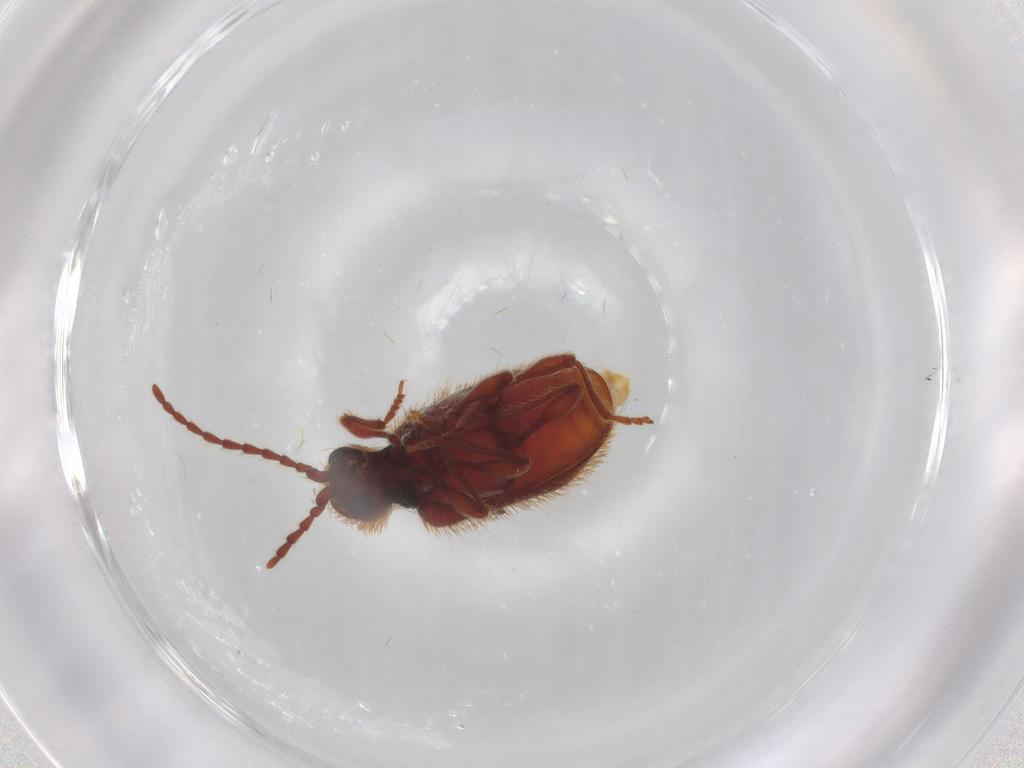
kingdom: Animalia
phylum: Arthropoda
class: Insecta
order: Coleoptera
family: Ptinidae
